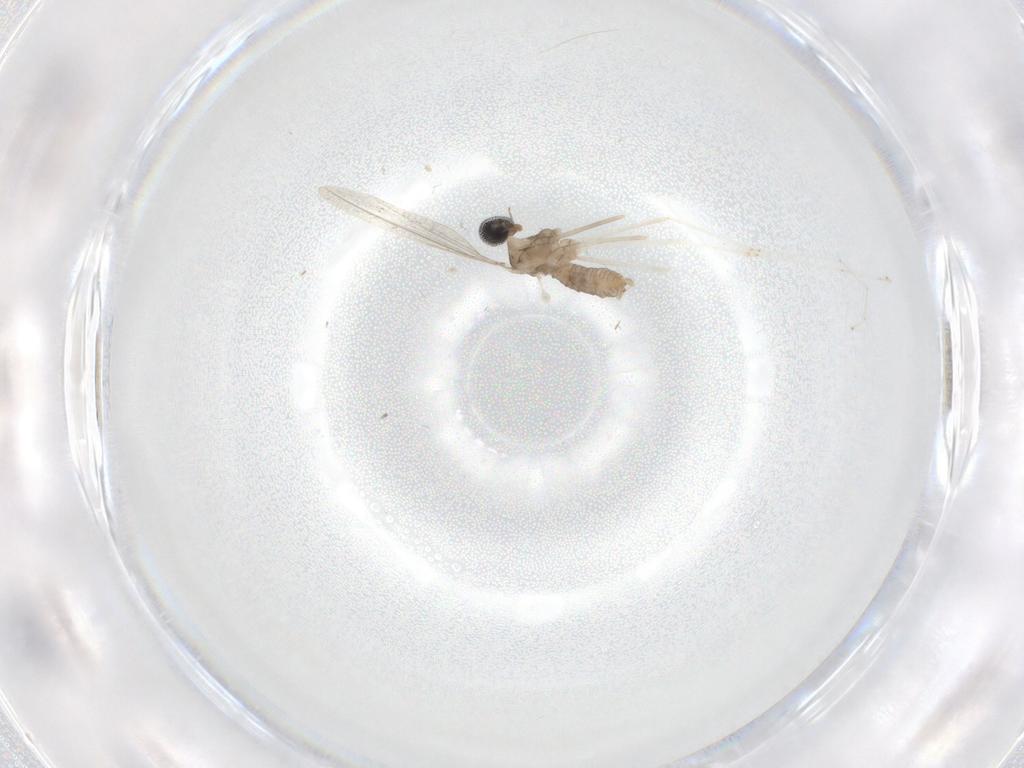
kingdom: Animalia
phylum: Arthropoda
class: Insecta
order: Diptera
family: Cecidomyiidae
